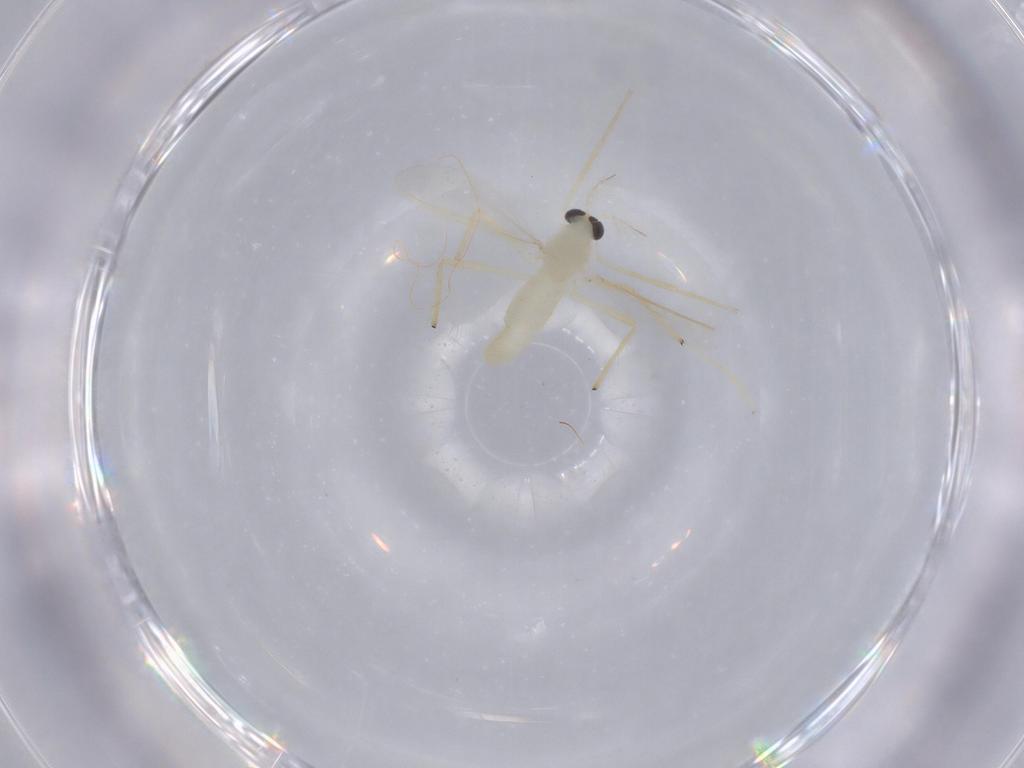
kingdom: Animalia
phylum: Arthropoda
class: Insecta
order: Diptera
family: Chironomidae
